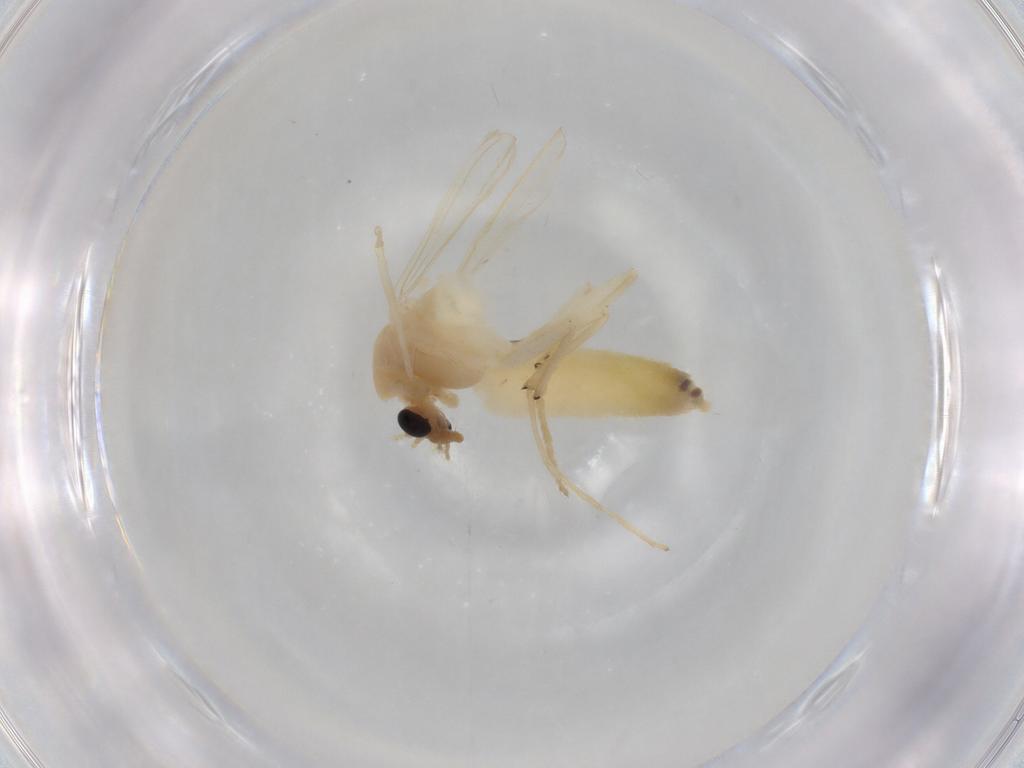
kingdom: Animalia
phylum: Arthropoda
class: Insecta
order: Diptera
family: Chironomidae
